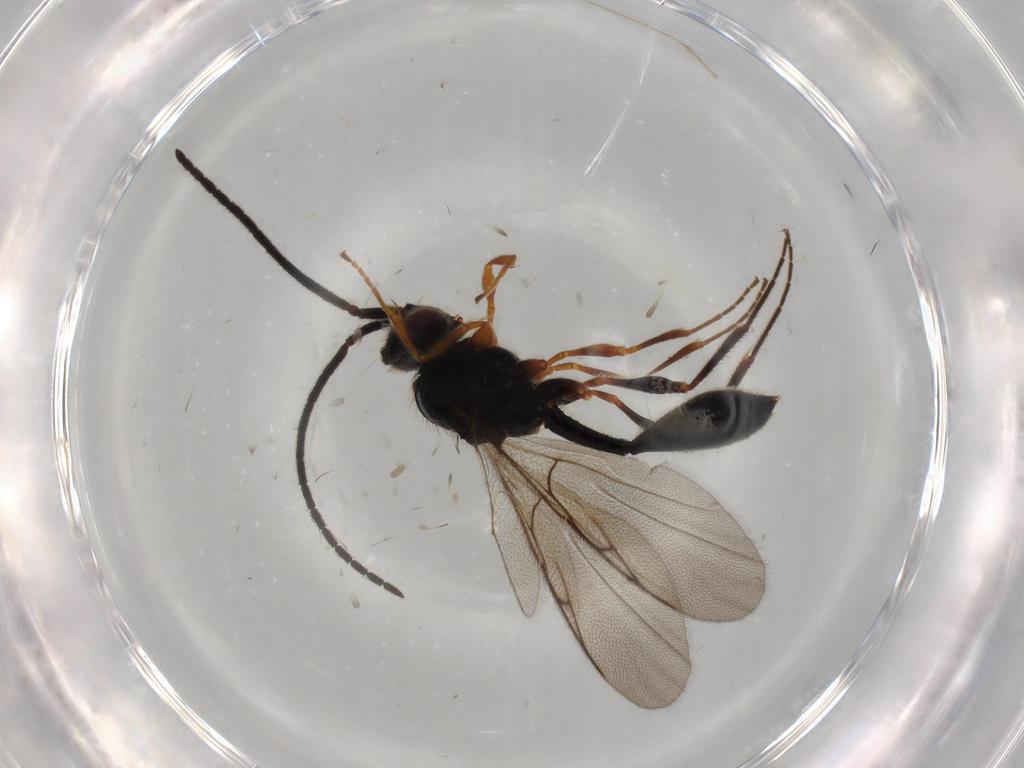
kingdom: Animalia
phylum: Arthropoda
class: Insecta
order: Hymenoptera
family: Diapriidae
